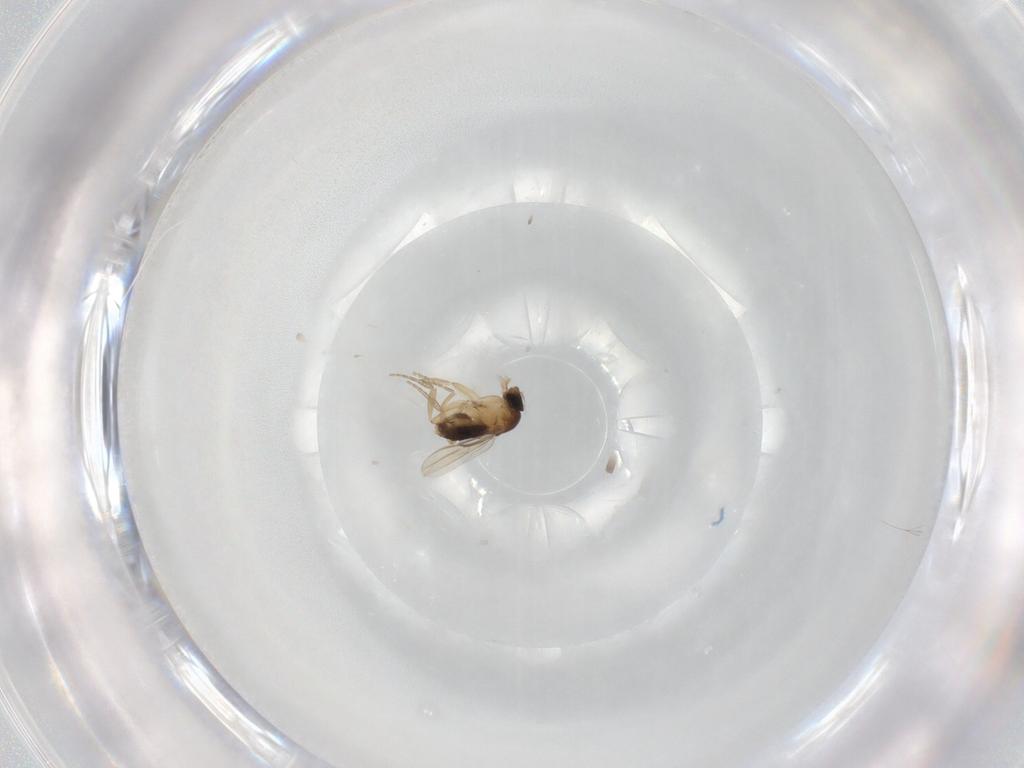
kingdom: Animalia
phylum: Arthropoda
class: Insecta
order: Diptera
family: Phoridae
